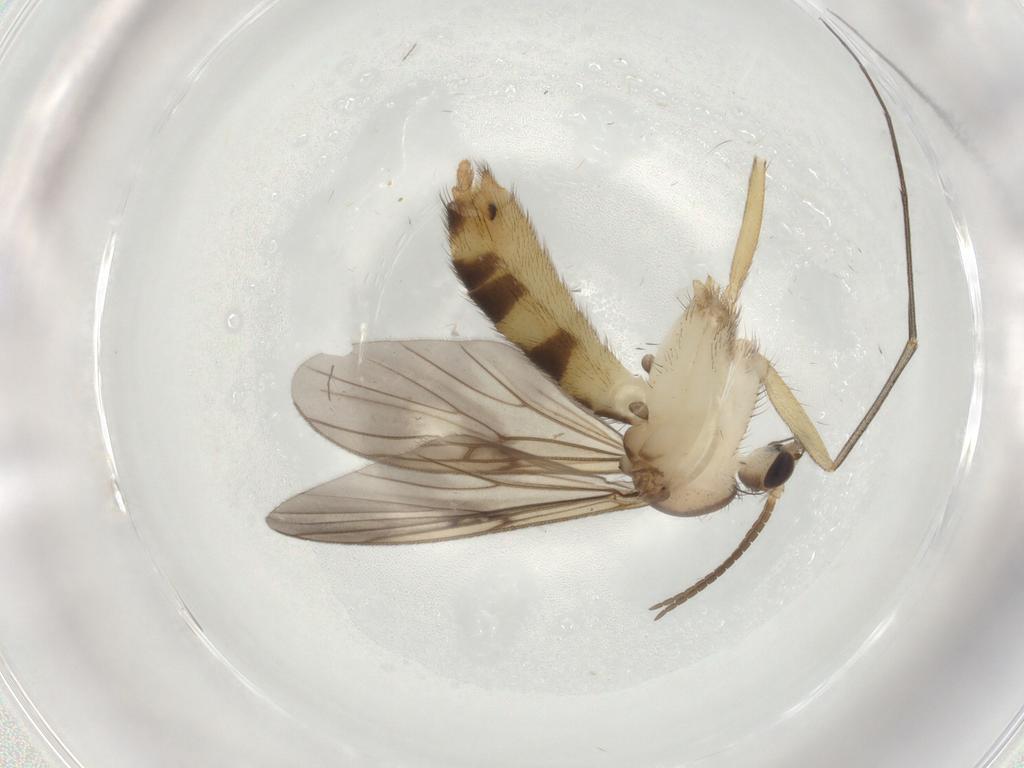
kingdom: Animalia
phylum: Arthropoda
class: Insecta
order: Diptera
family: Mycetophilidae
